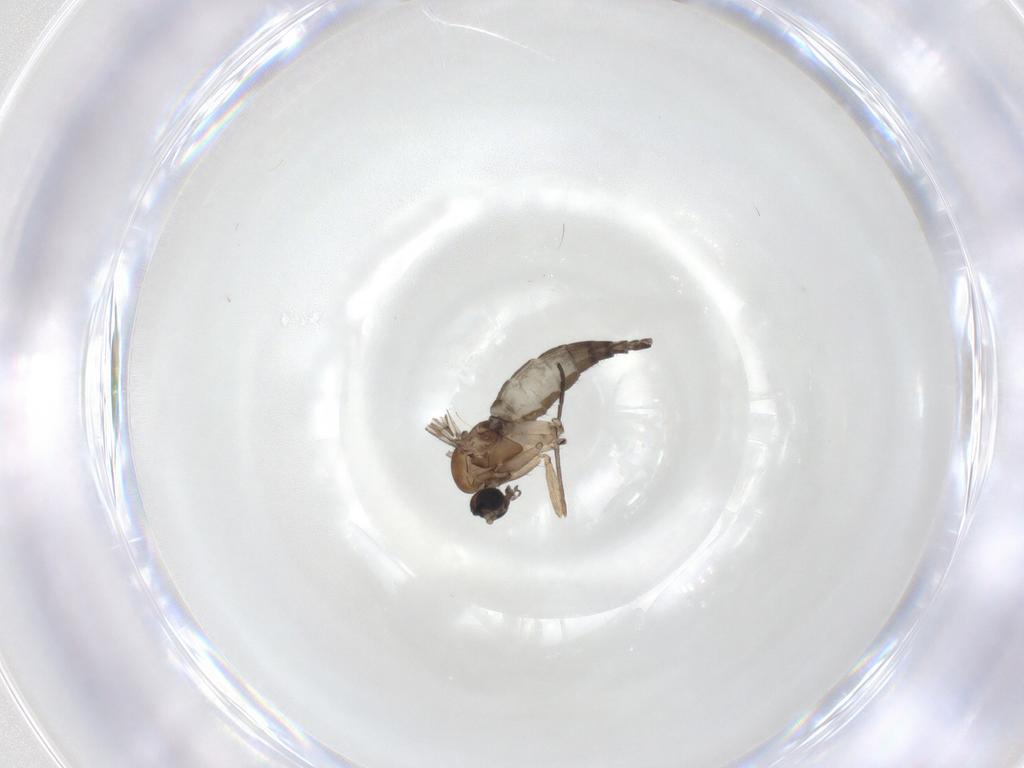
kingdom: Animalia
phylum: Arthropoda
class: Insecta
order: Diptera
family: Sciaridae
